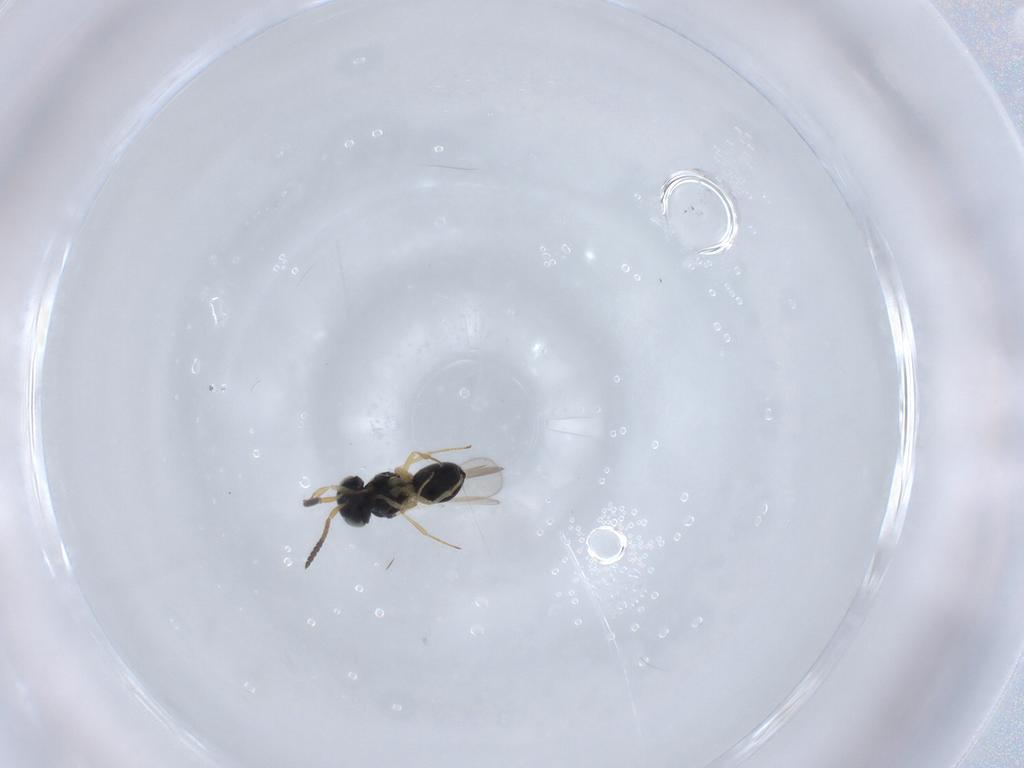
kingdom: Animalia
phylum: Arthropoda
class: Insecta
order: Hymenoptera
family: Scelionidae
